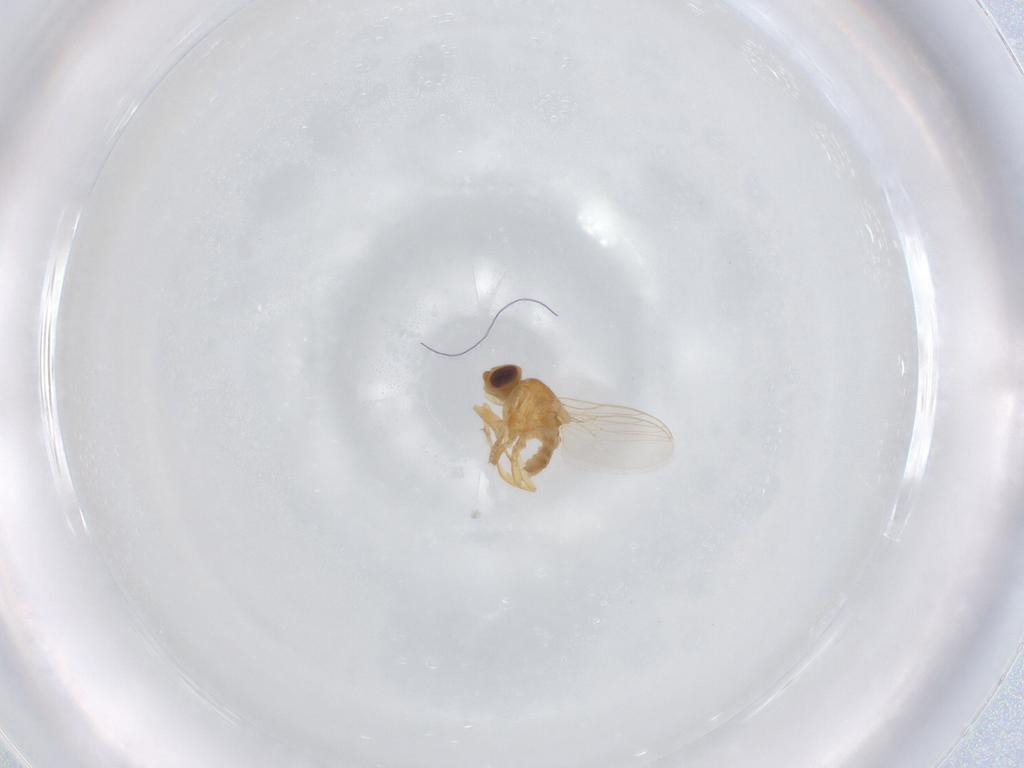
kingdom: Animalia
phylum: Arthropoda
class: Insecta
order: Diptera
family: Chloropidae
